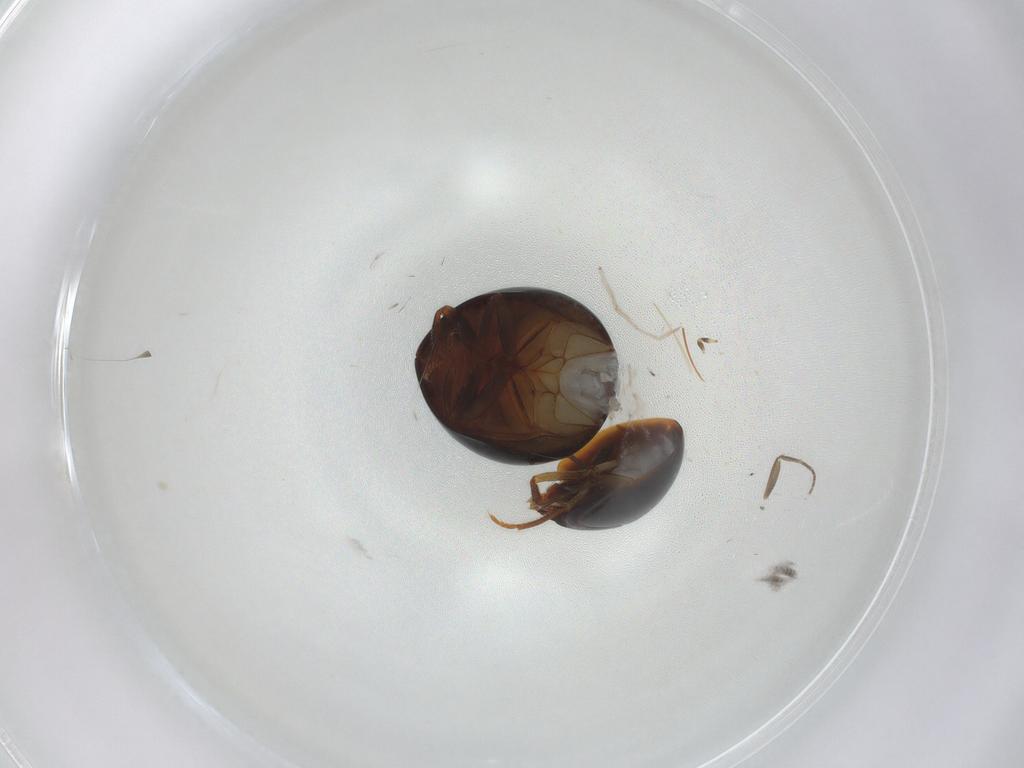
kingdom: Animalia
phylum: Arthropoda
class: Insecta
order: Coleoptera
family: Leiodidae
